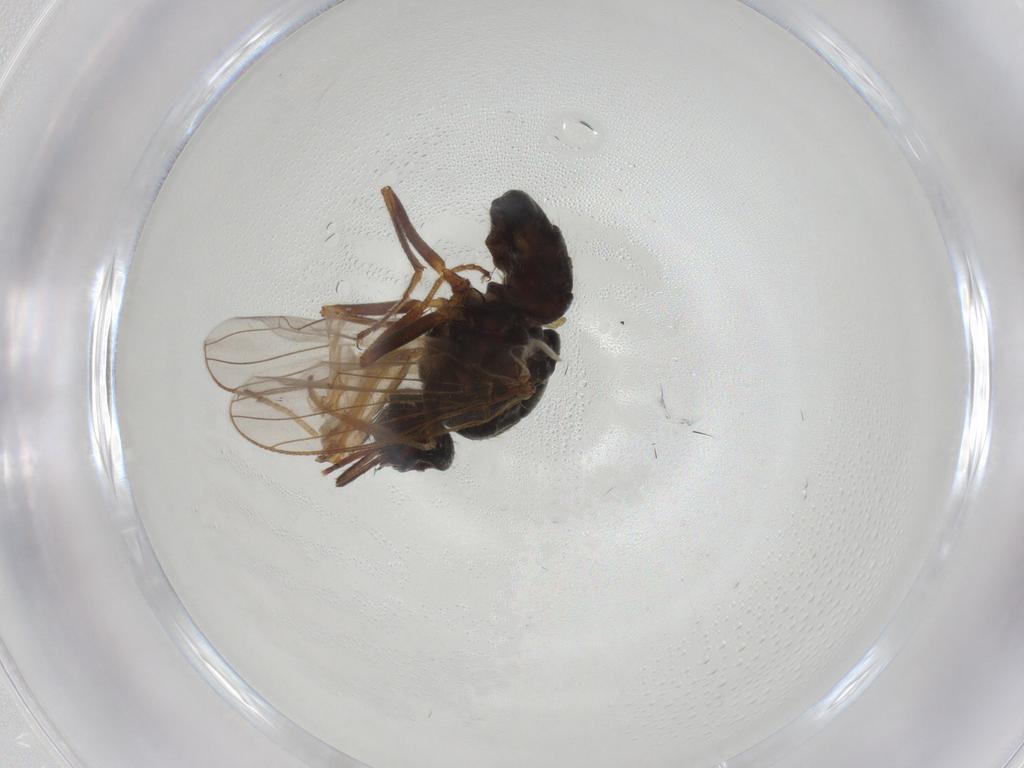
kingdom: Animalia
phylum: Arthropoda
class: Insecta
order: Diptera
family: Muscidae
